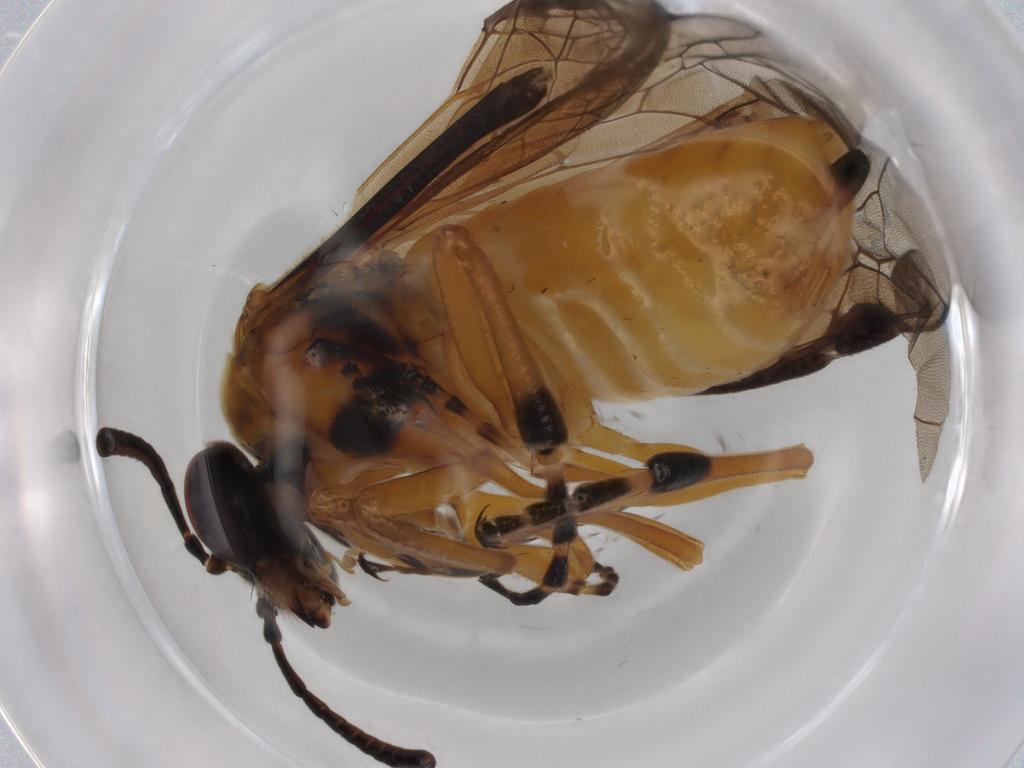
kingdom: Animalia
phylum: Arthropoda
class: Insecta
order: Hymenoptera
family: Tenthredinidae
